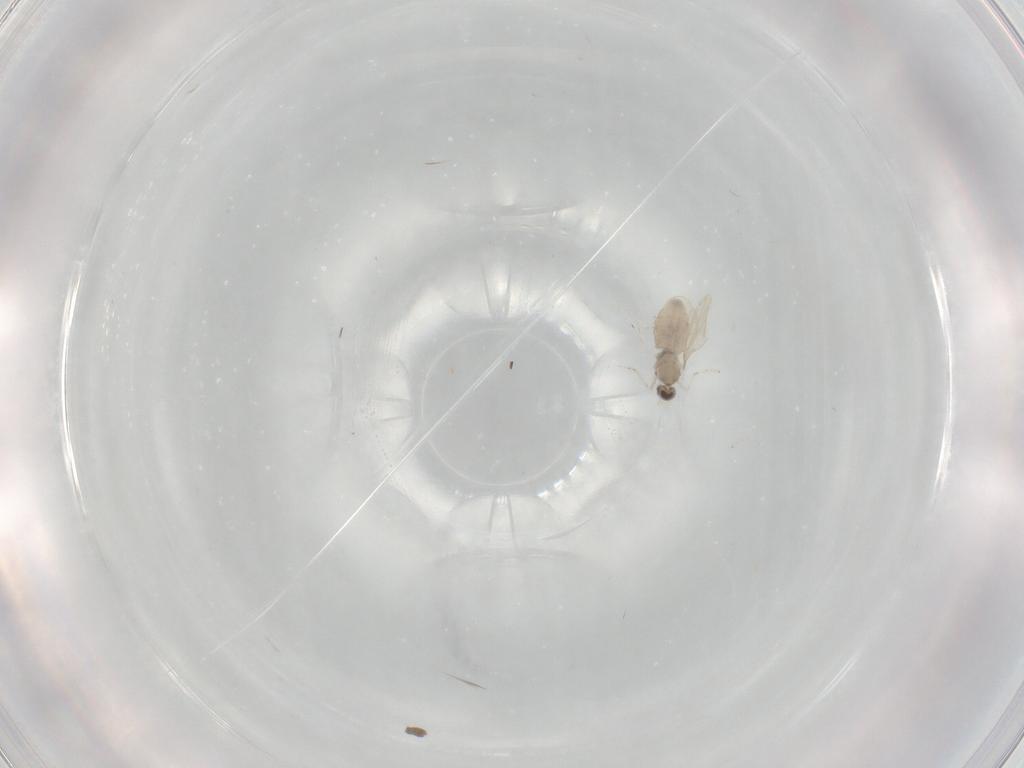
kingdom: Animalia
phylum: Arthropoda
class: Insecta
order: Diptera
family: Cecidomyiidae
